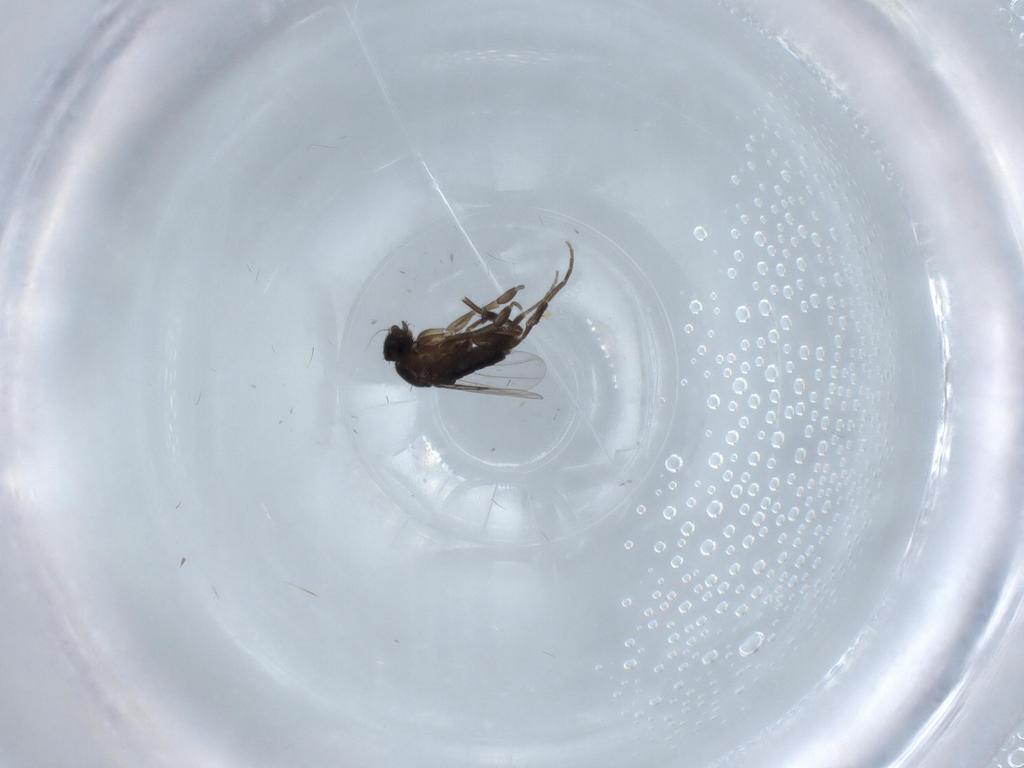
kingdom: Animalia
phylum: Arthropoda
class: Insecta
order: Diptera
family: Phoridae
